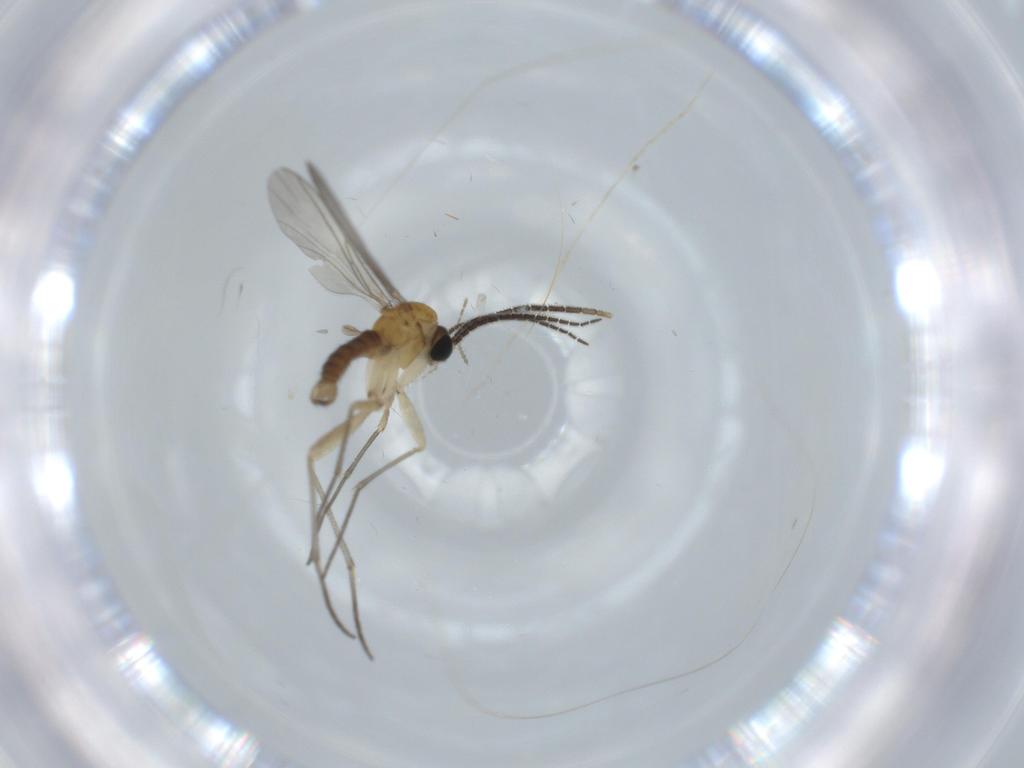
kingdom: Animalia
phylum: Arthropoda
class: Insecta
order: Diptera
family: Sciaridae
